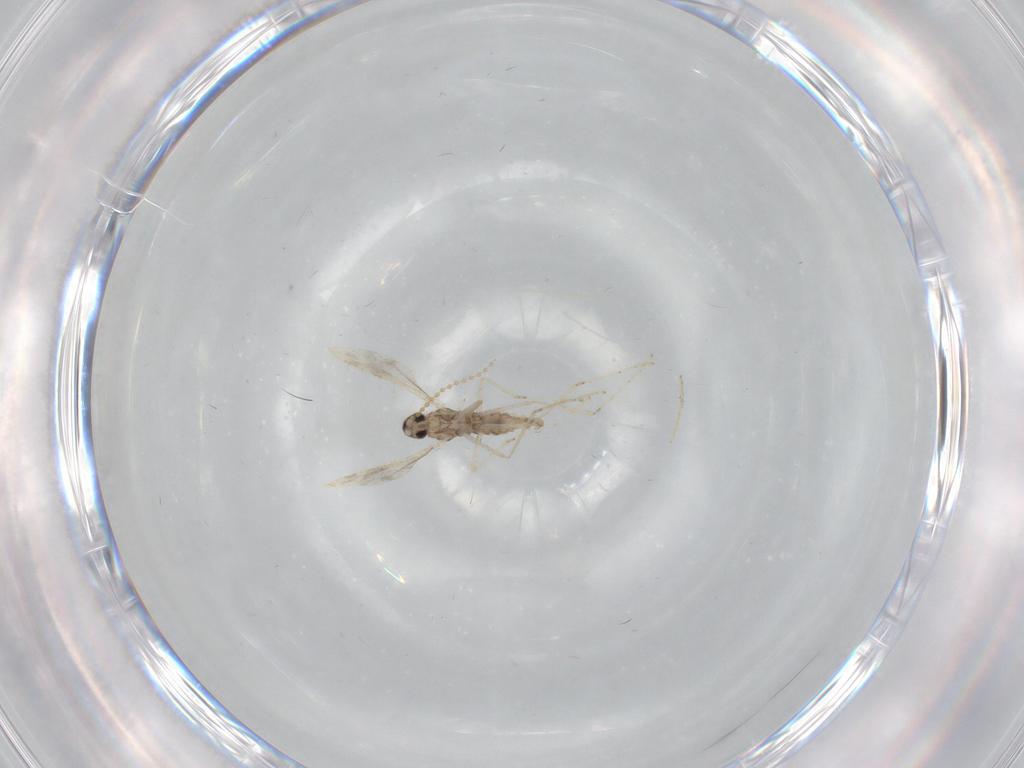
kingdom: Animalia
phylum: Arthropoda
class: Insecta
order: Diptera
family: Cecidomyiidae
